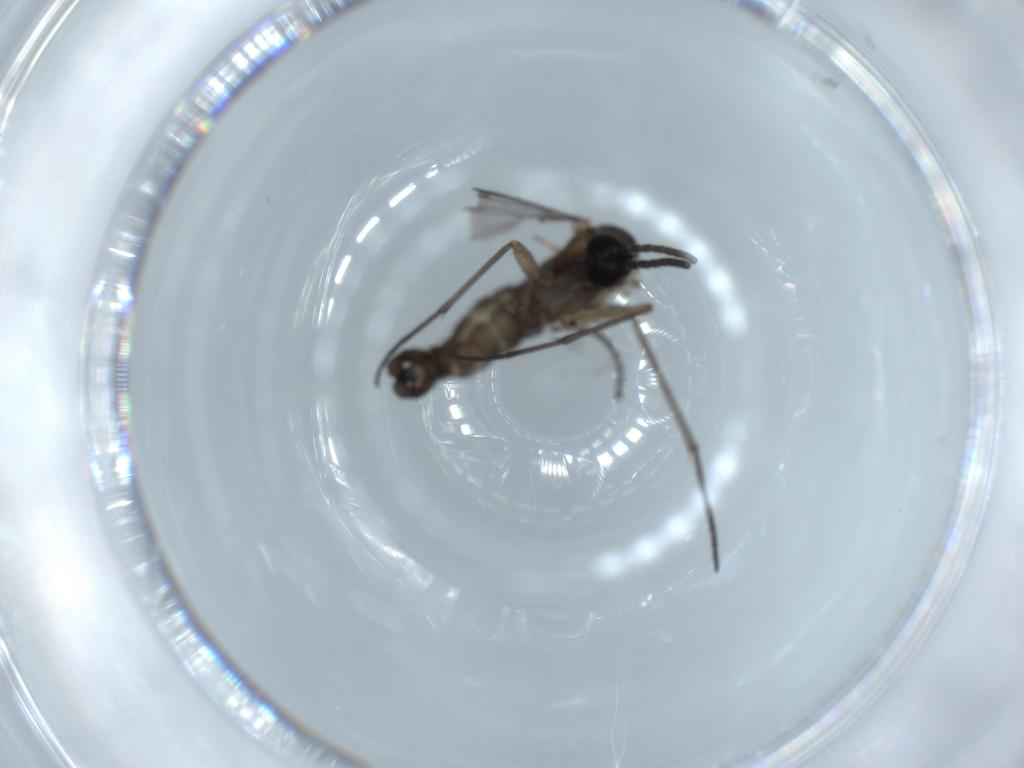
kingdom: Animalia
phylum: Arthropoda
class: Insecta
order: Diptera
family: Sciaridae
